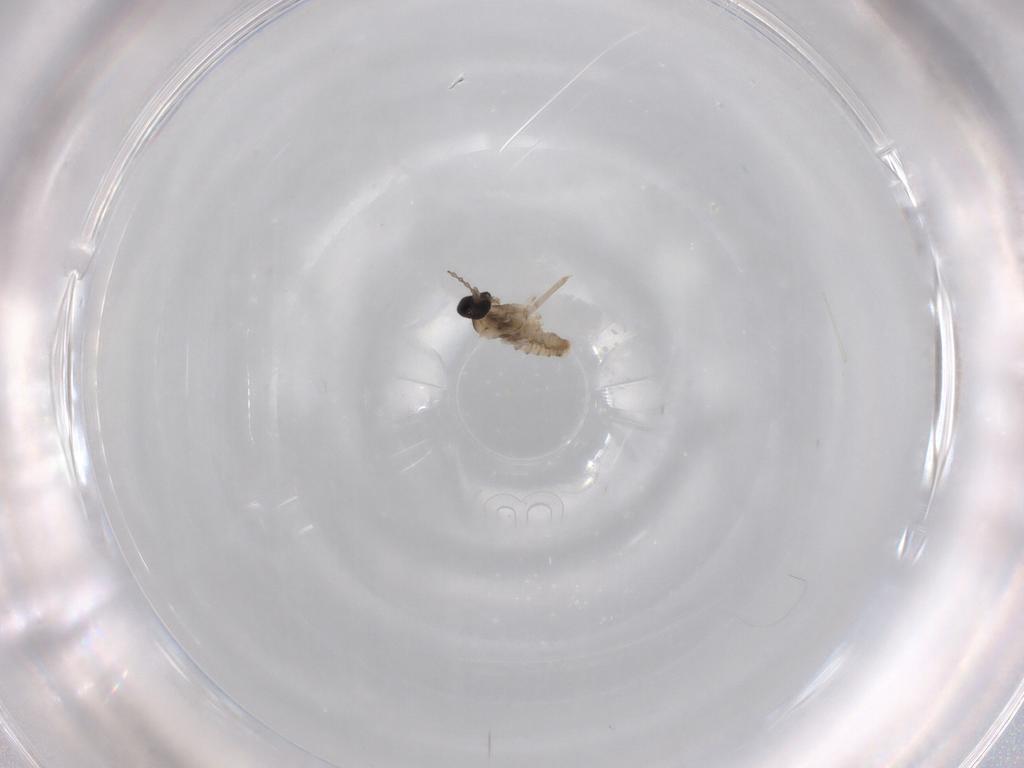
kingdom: Animalia
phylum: Arthropoda
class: Insecta
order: Diptera
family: Cecidomyiidae
